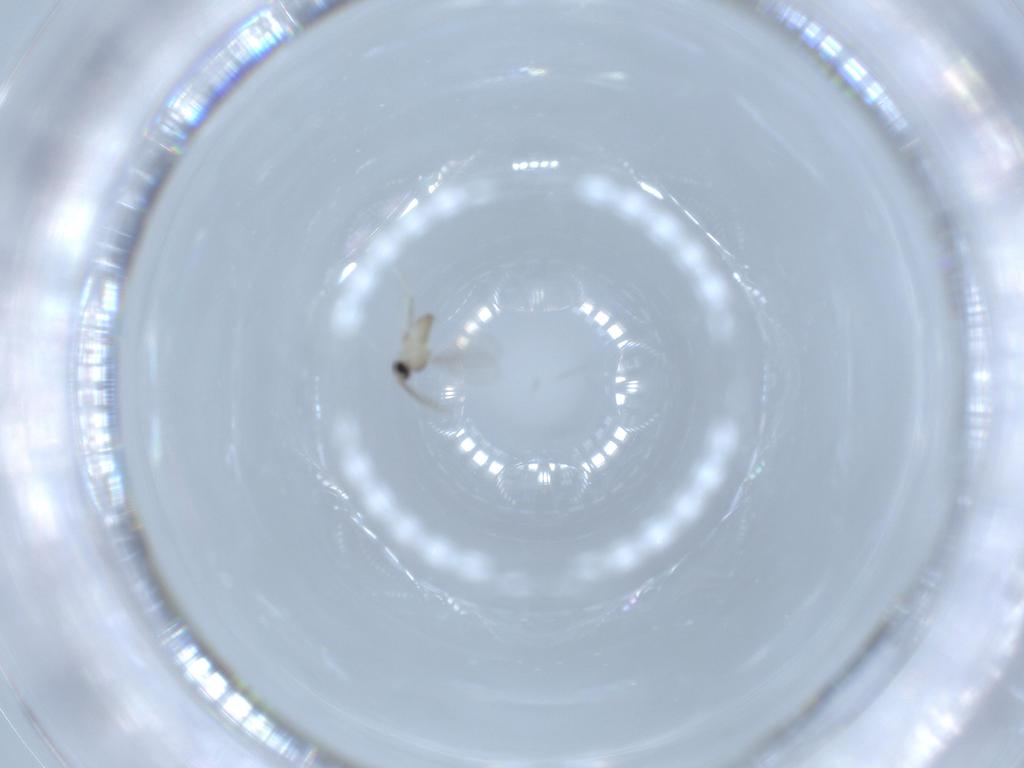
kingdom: Animalia
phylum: Arthropoda
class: Insecta
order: Diptera
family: Cecidomyiidae
